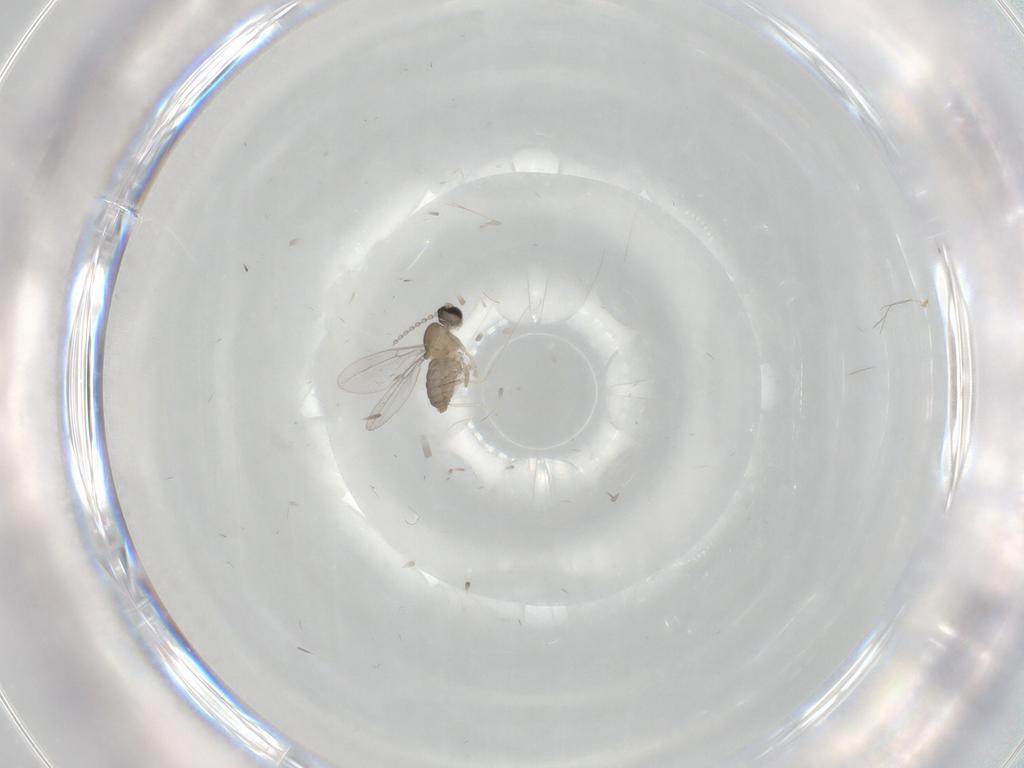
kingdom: Animalia
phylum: Arthropoda
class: Insecta
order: Diptera
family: Cecidomyiidae
